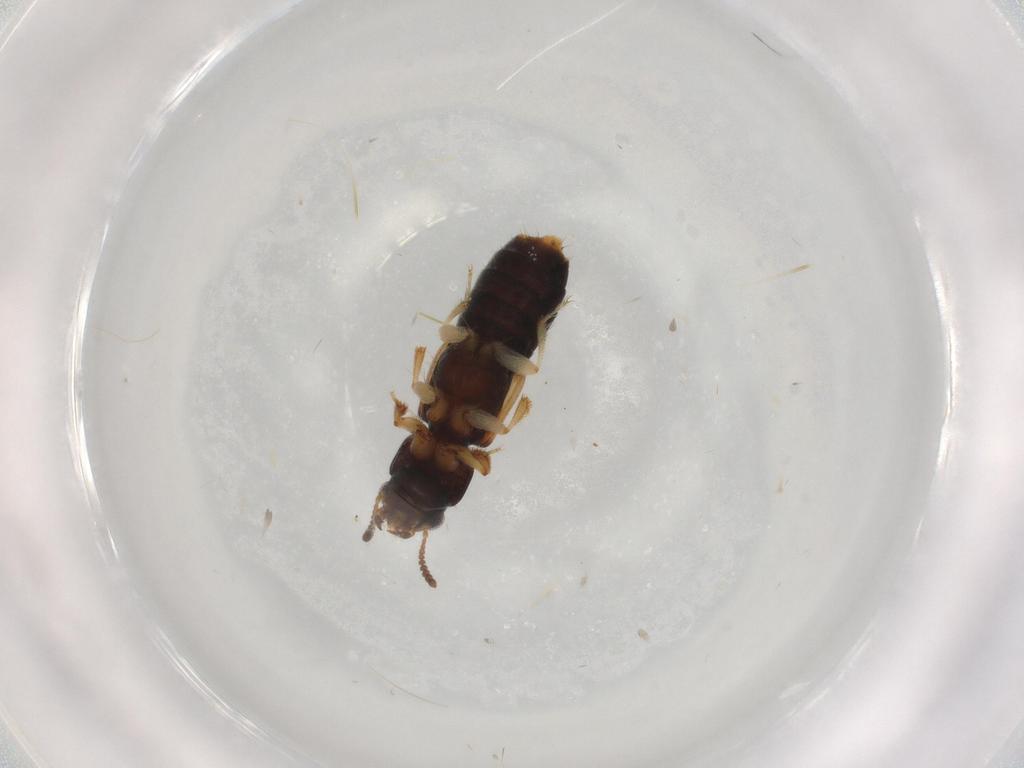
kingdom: Animalia
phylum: Arthropoda
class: Insecta
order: Coleoptera
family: Staphylinidae
